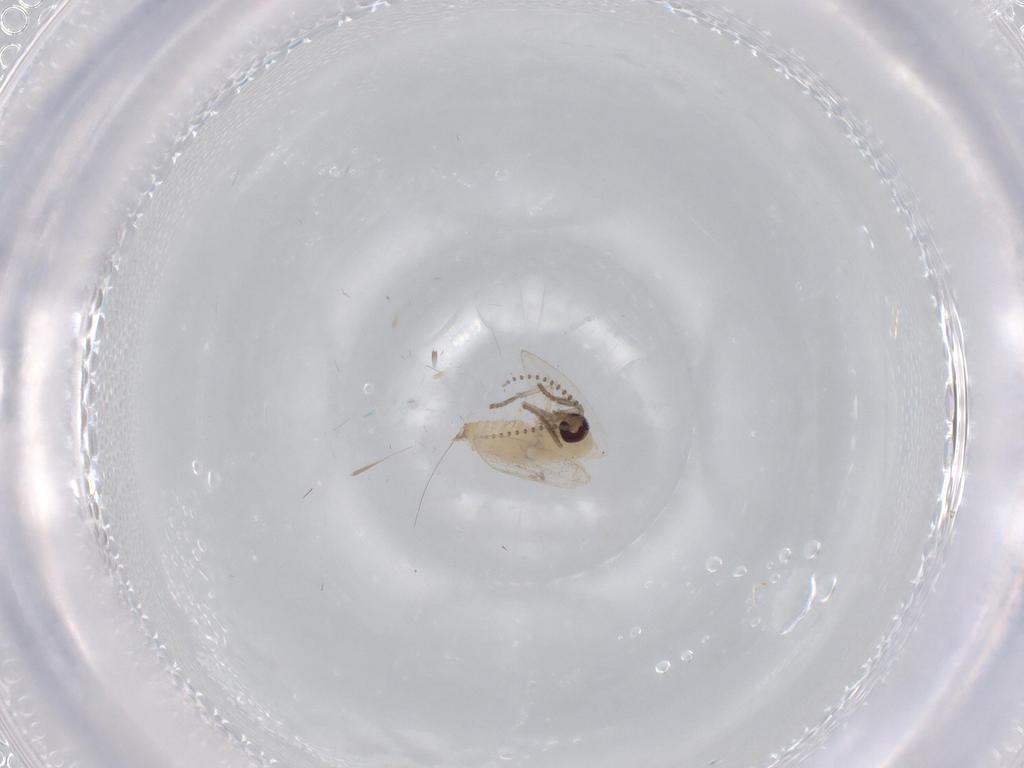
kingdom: Animalia
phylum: Arthropoda
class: Insecta
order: Diptera
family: Psychodidae
